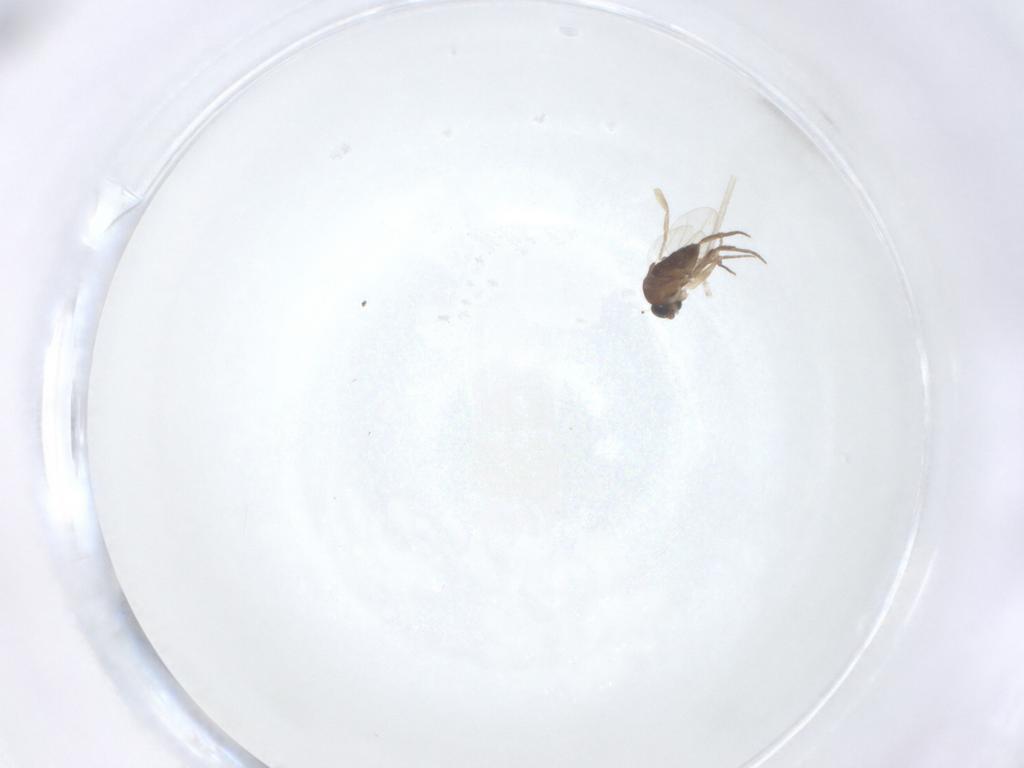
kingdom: Animalia
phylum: Arthropoda
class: Insecta
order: Diptera
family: Phoridae
